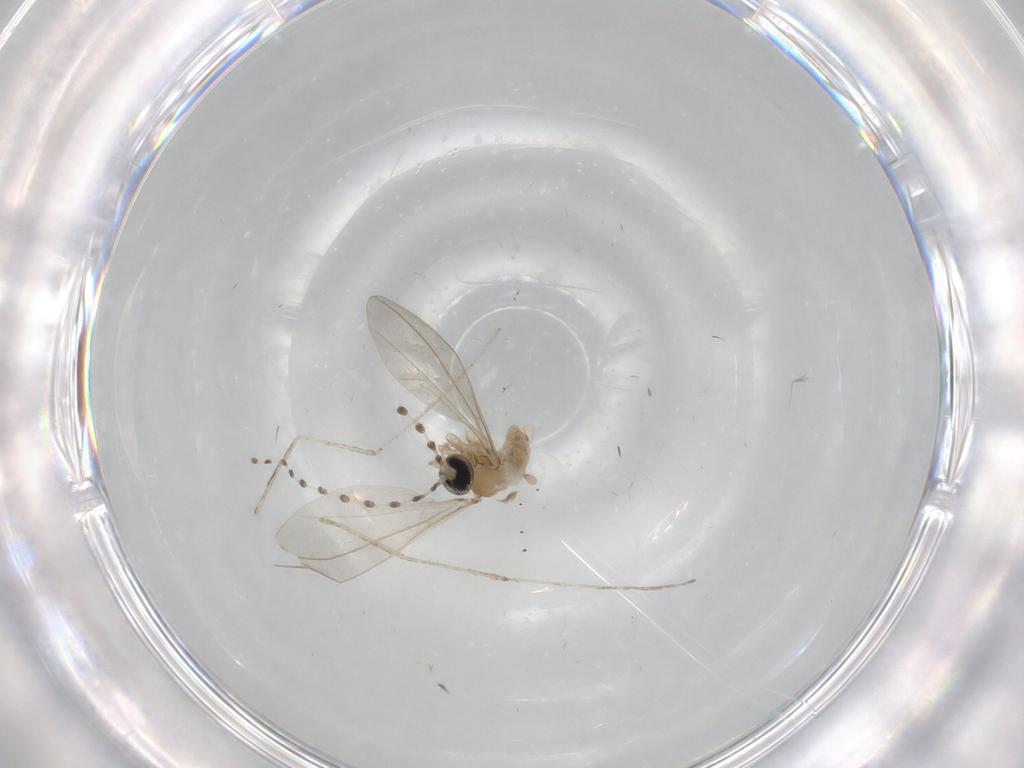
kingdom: Animalia
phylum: Arthropoda
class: Insecta
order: Diptera
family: Cecidomyiidae
